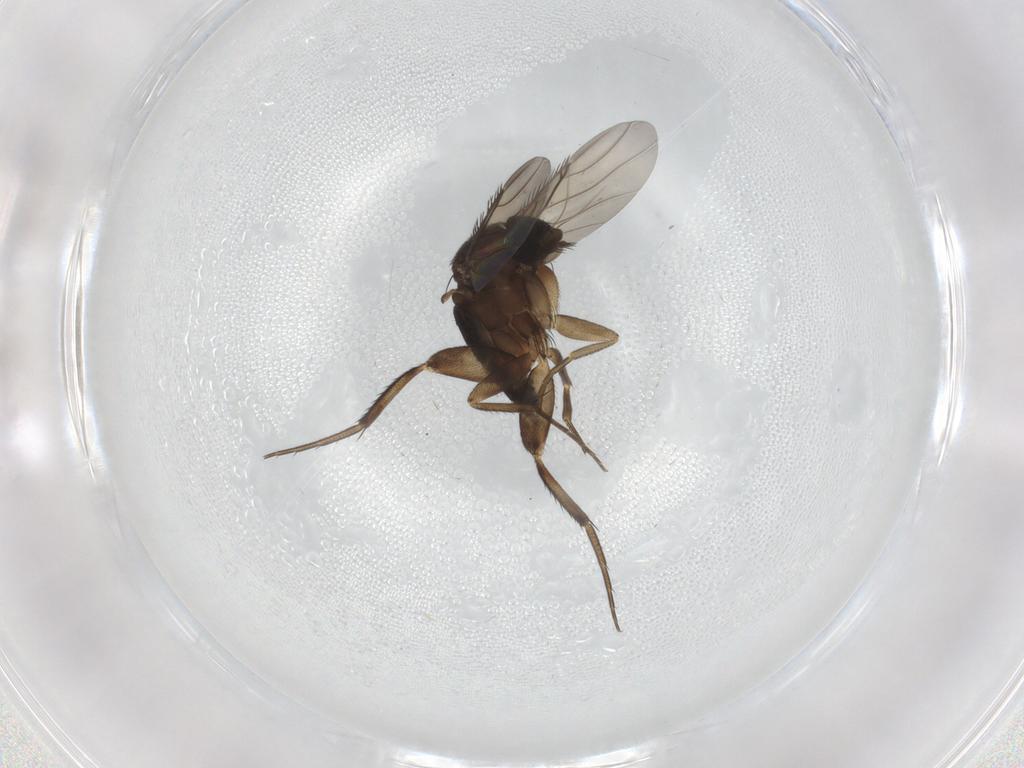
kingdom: Animalia
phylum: Arthropoda
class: Insecta
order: Diptera
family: Phoridae
